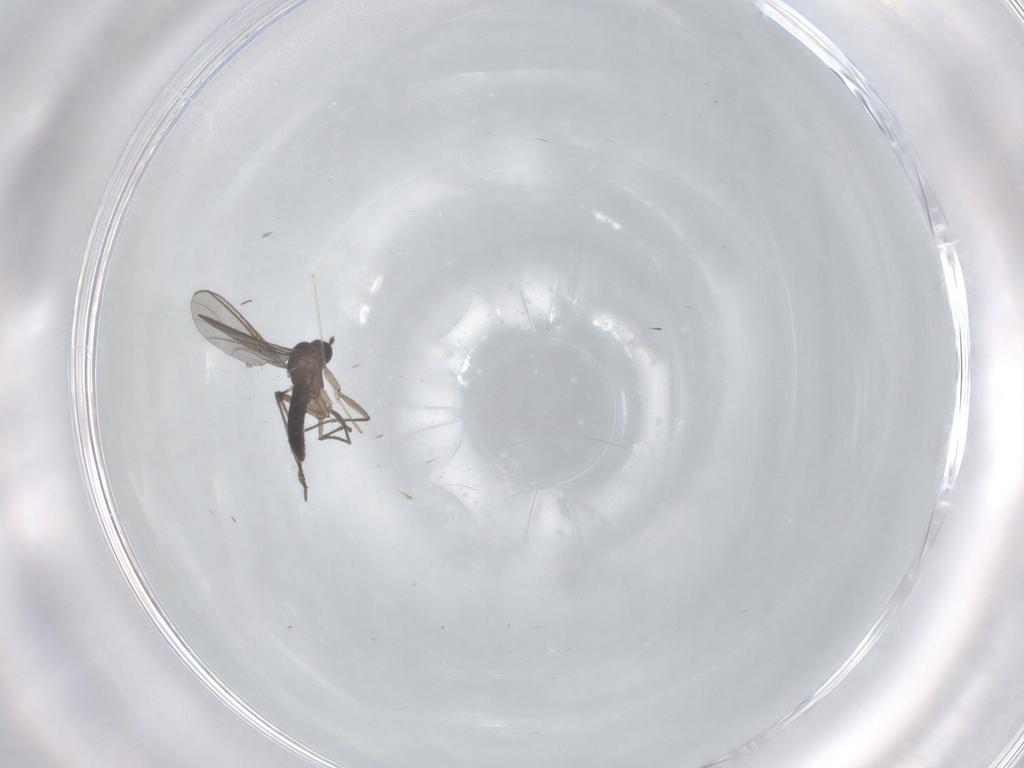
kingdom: Animalia
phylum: Arthropoda
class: Insecta
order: Diptera
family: Sciaridae
